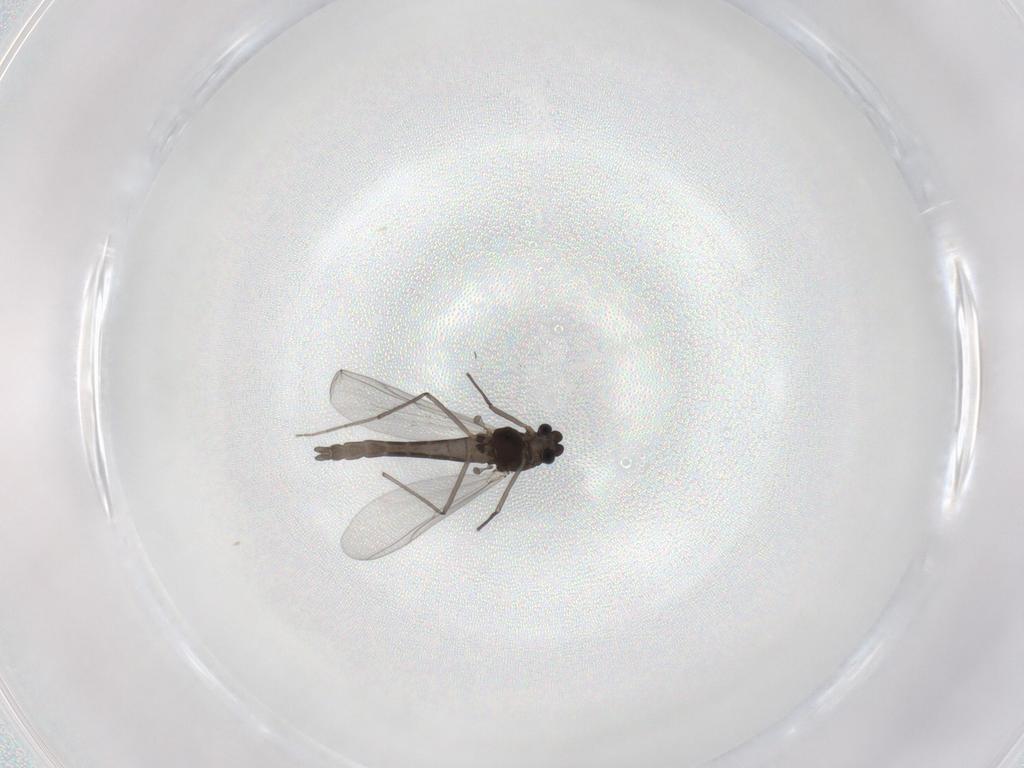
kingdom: Animalia
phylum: Arthropoda
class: Insecta
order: Diptera
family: Chironomidae
